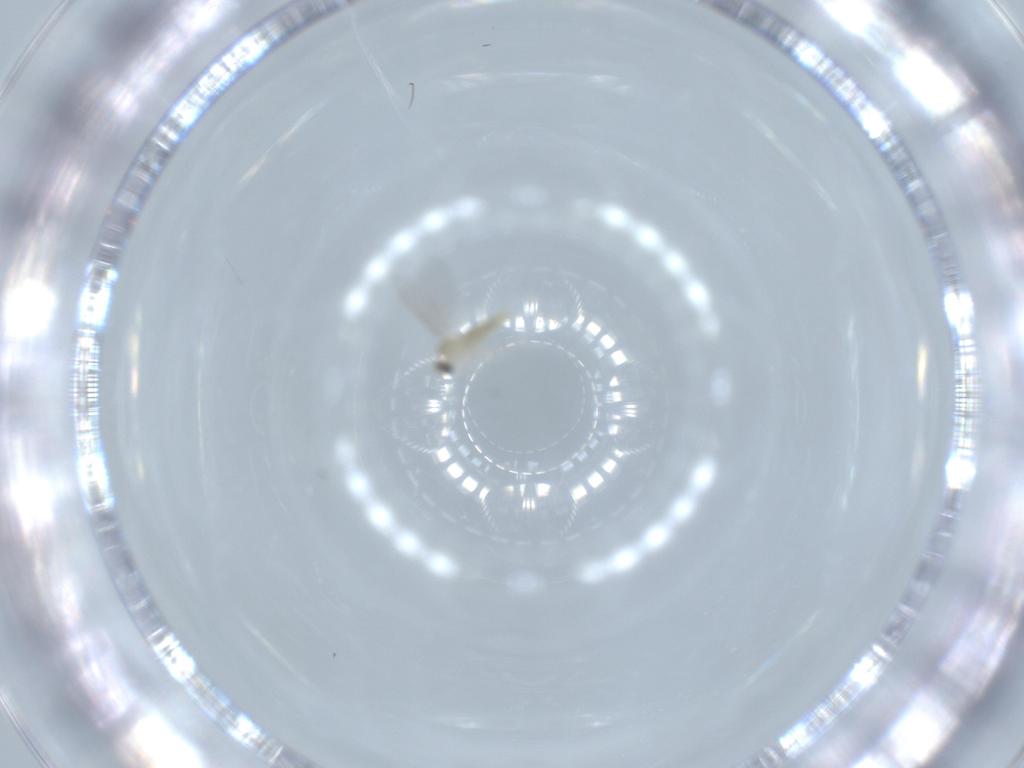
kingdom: Animalia
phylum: Arthropoda
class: Insecta
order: Diptera
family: Cecidomyiidae
